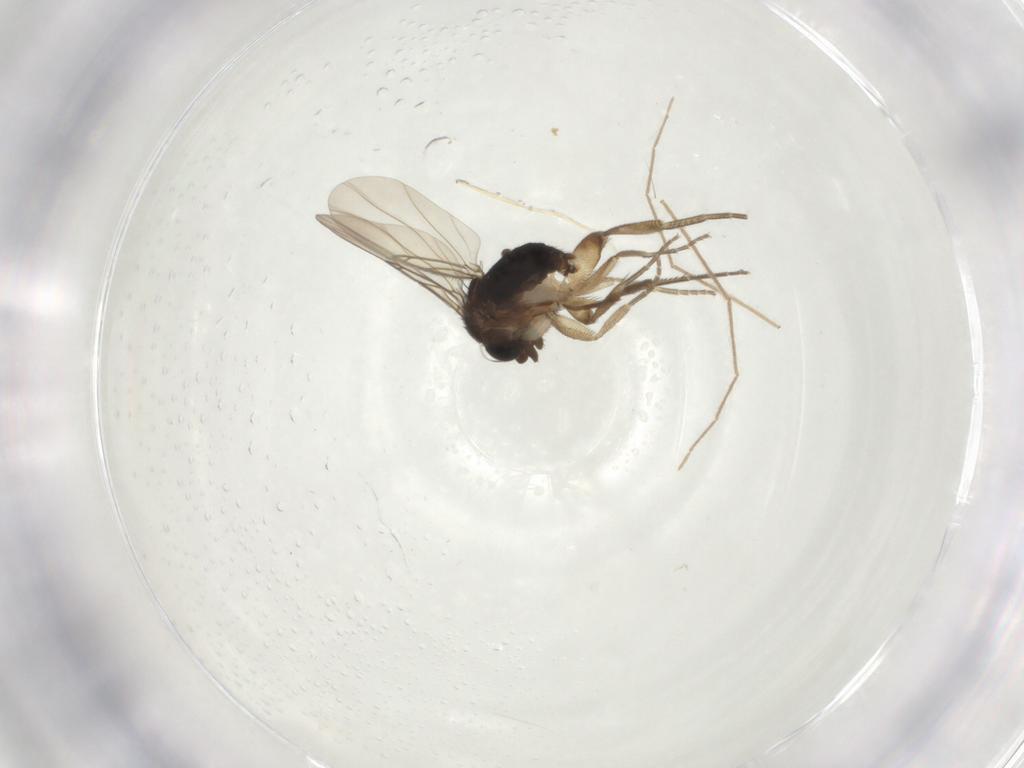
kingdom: Animalia
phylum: Arthropoda
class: Insecta
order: Diptera
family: Phoridae
